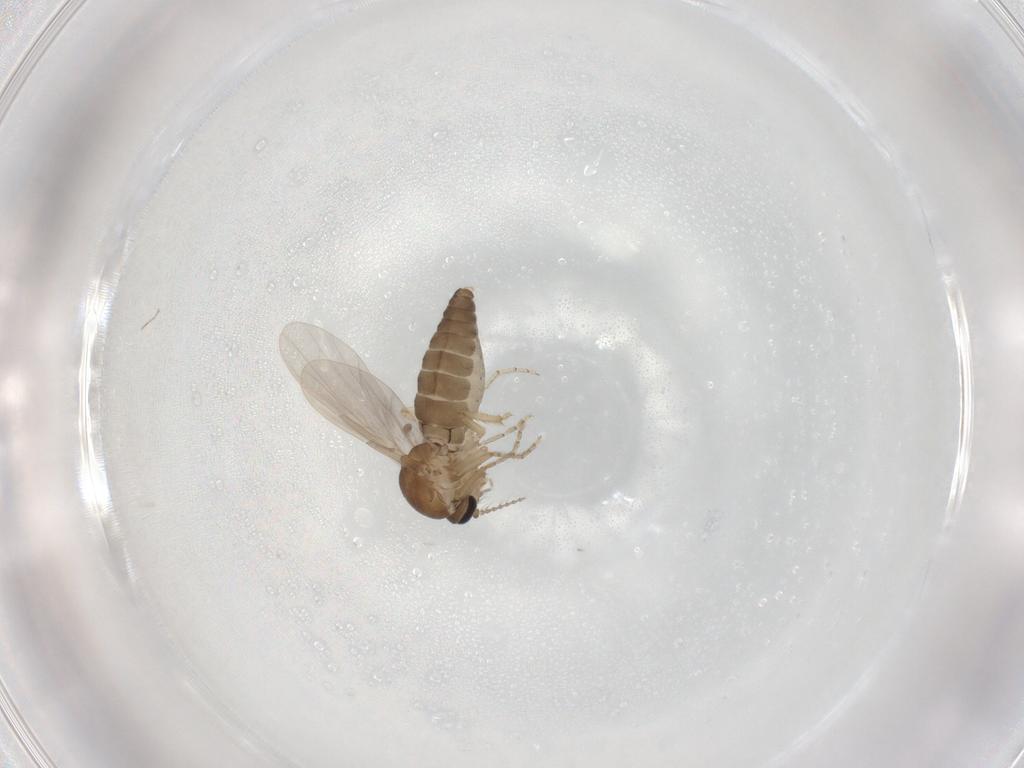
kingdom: Animalia
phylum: Arthropoda
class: Insecta
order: Diptera
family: Ceratopogonidae
